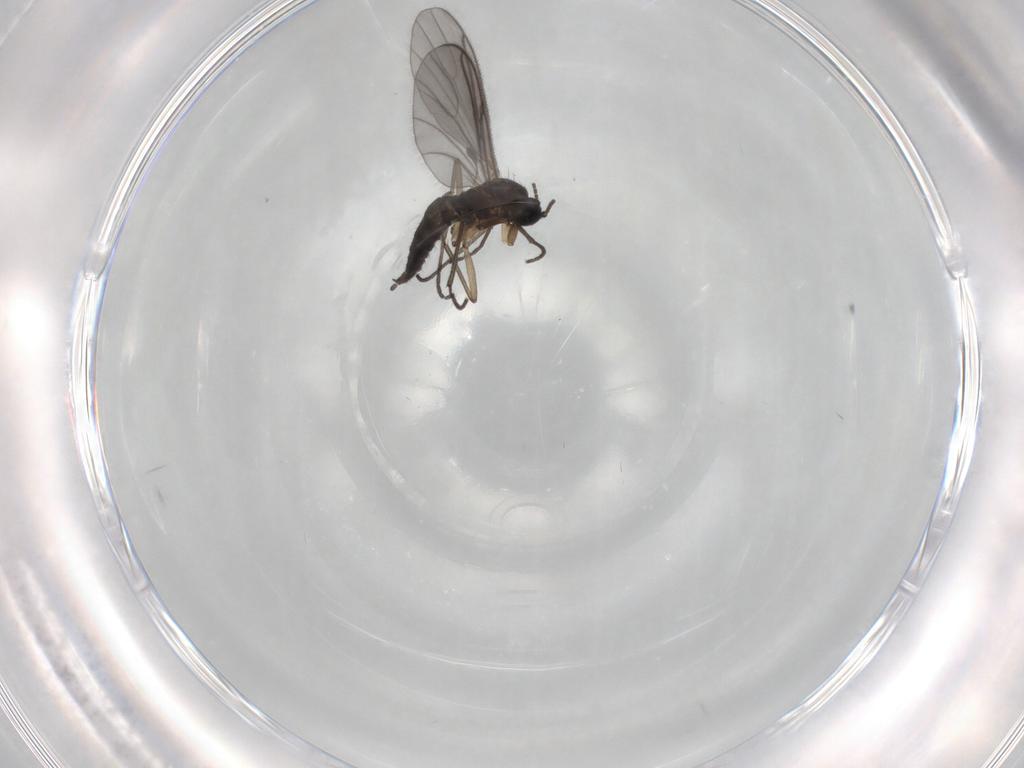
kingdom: Animalia
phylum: Arthropoda
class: Insecta
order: Diptera
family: Sciaridae
